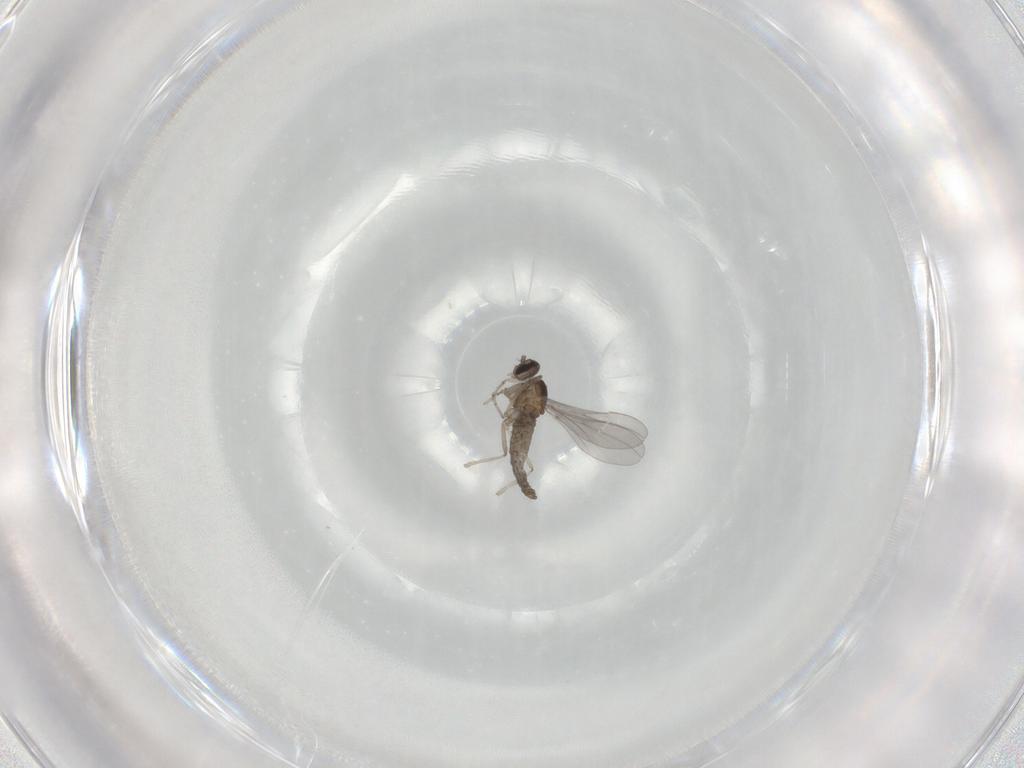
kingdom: Animalia
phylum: Arthropoda
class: Insecta
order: Diptera
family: Cecidomyiidae
